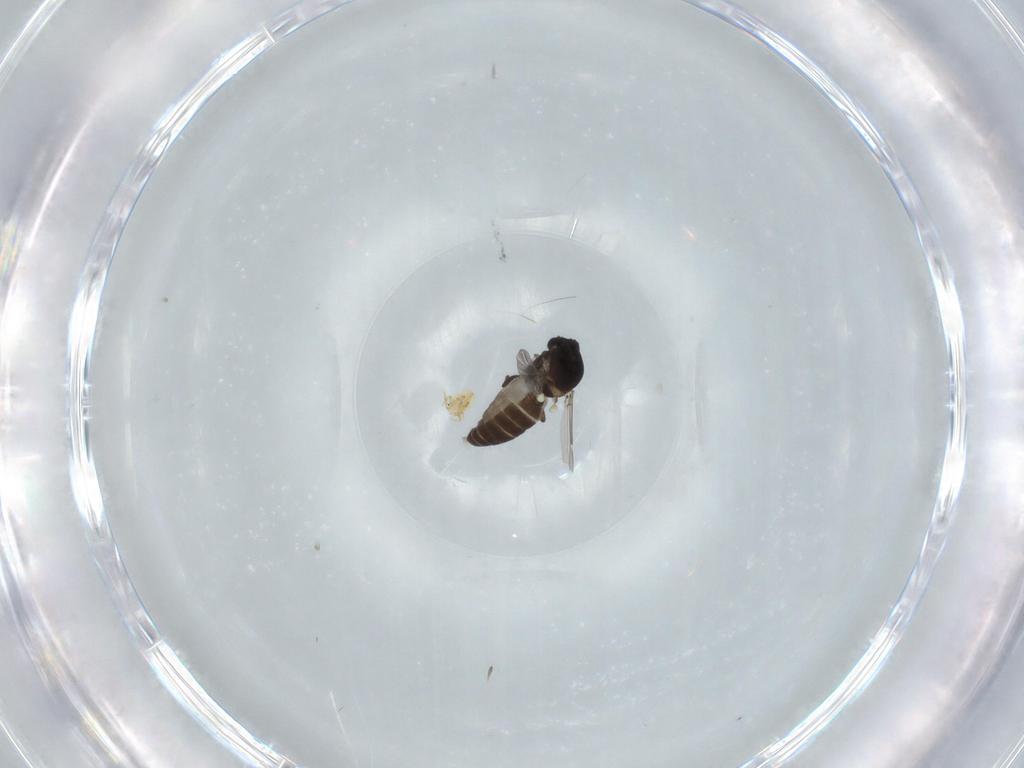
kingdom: Animalia
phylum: Arthropoda
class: Insecta
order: Diptera
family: Ceratopogonidae
